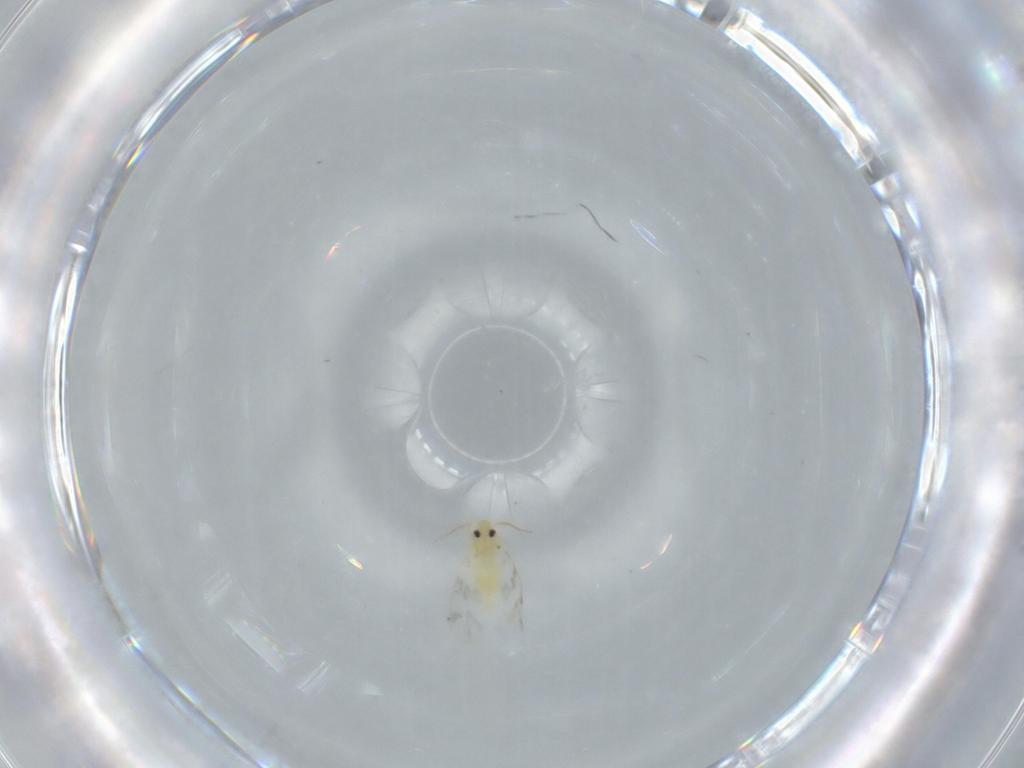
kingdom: Animalia
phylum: Arthropoda
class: Insecta
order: Hemiptera
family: Aleyrodidae
